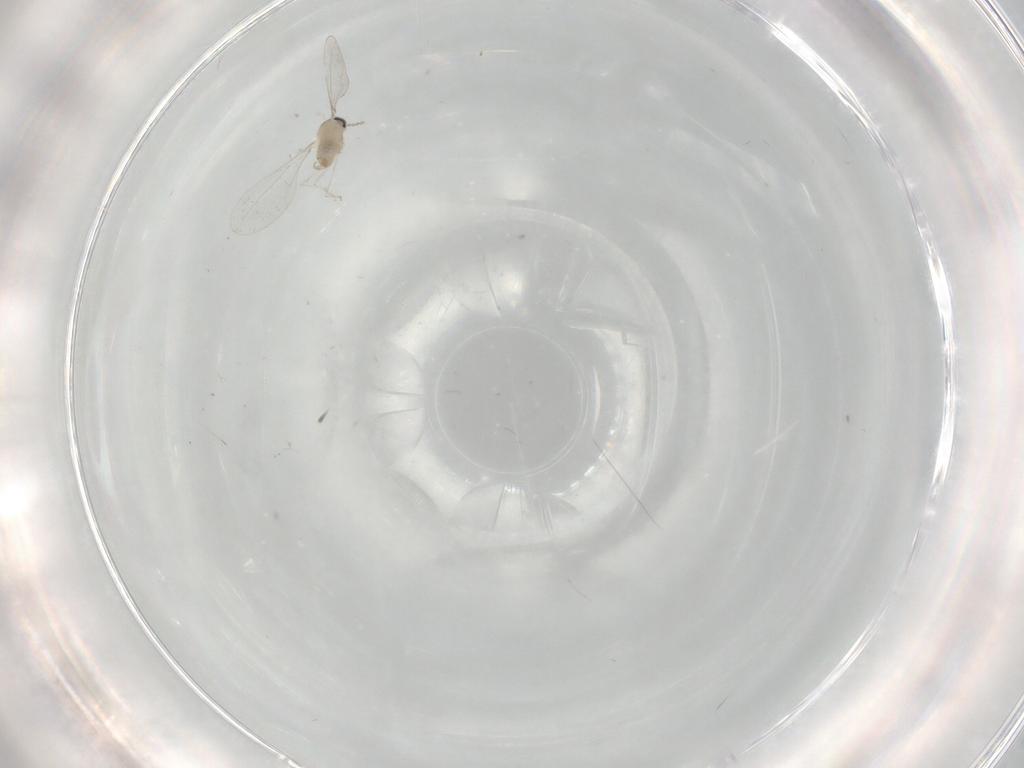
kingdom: Animalia
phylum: Arthropoda
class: Insecta
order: Diptera
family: Cecidomyiidae
